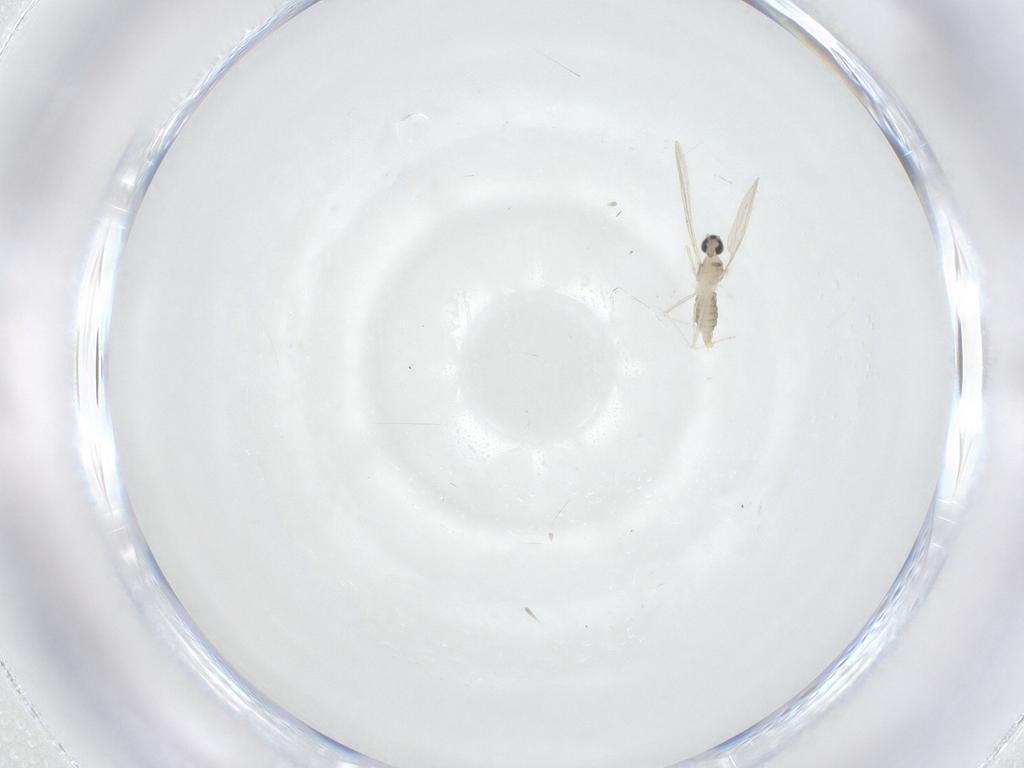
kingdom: Animalia
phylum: Arthropoda
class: Insecta
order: Diptera
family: Cecidomyiidae
